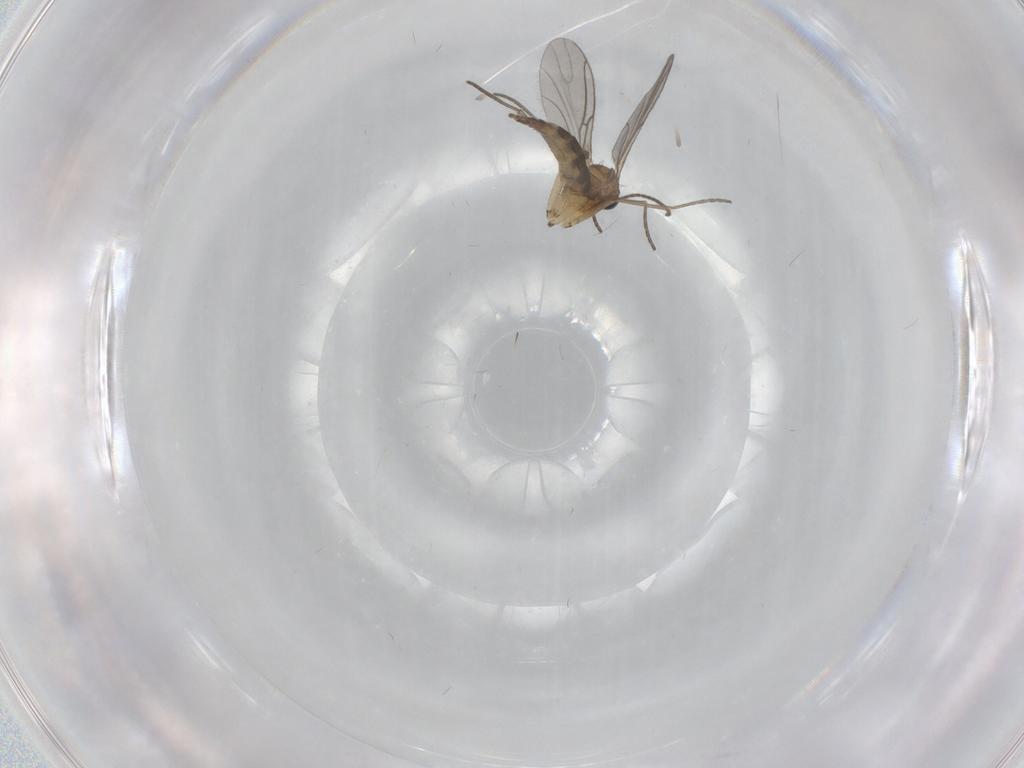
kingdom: Animalia
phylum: Arthropoda
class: Insecta
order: Diptera
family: Sciaridae
